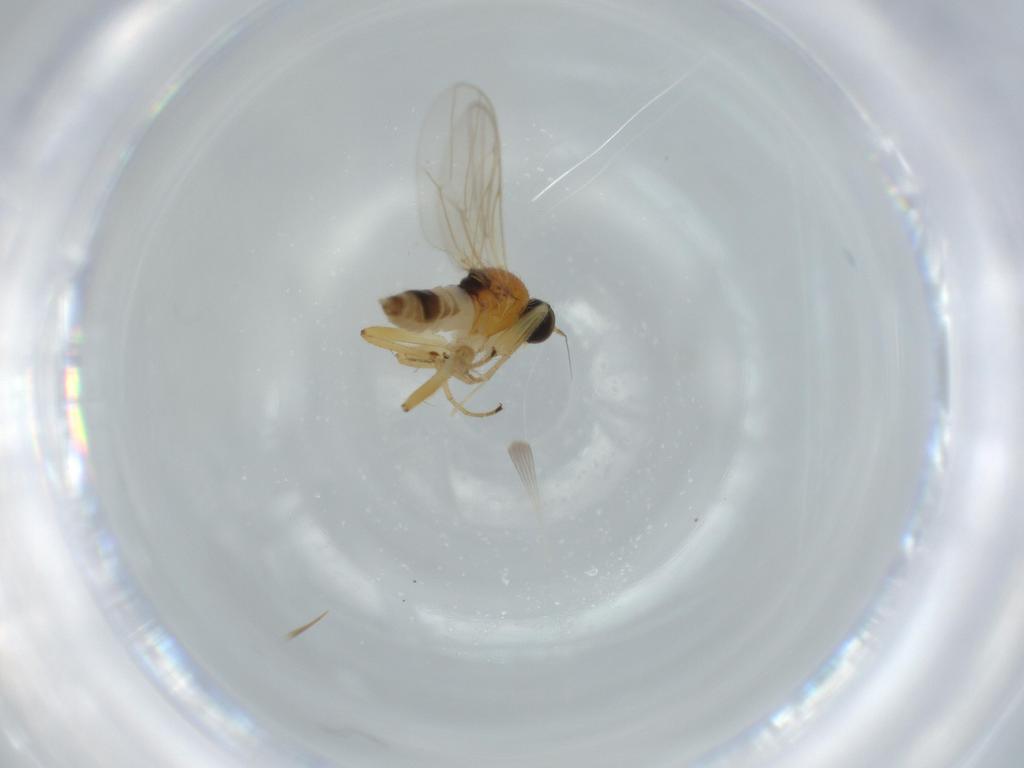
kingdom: Animalia
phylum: Arthropoda
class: Insecta
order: Diptera
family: Hybotidae
